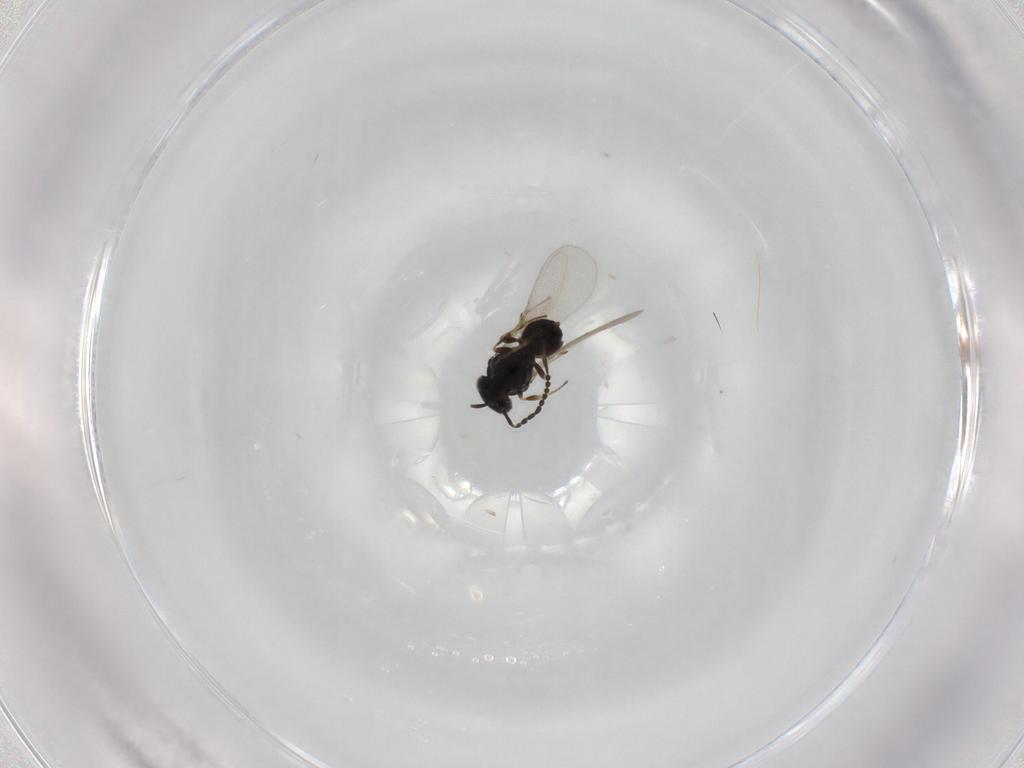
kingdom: Animalia
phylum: Arthropoda
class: Insecta
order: Hymenoptera
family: Scelionidae
